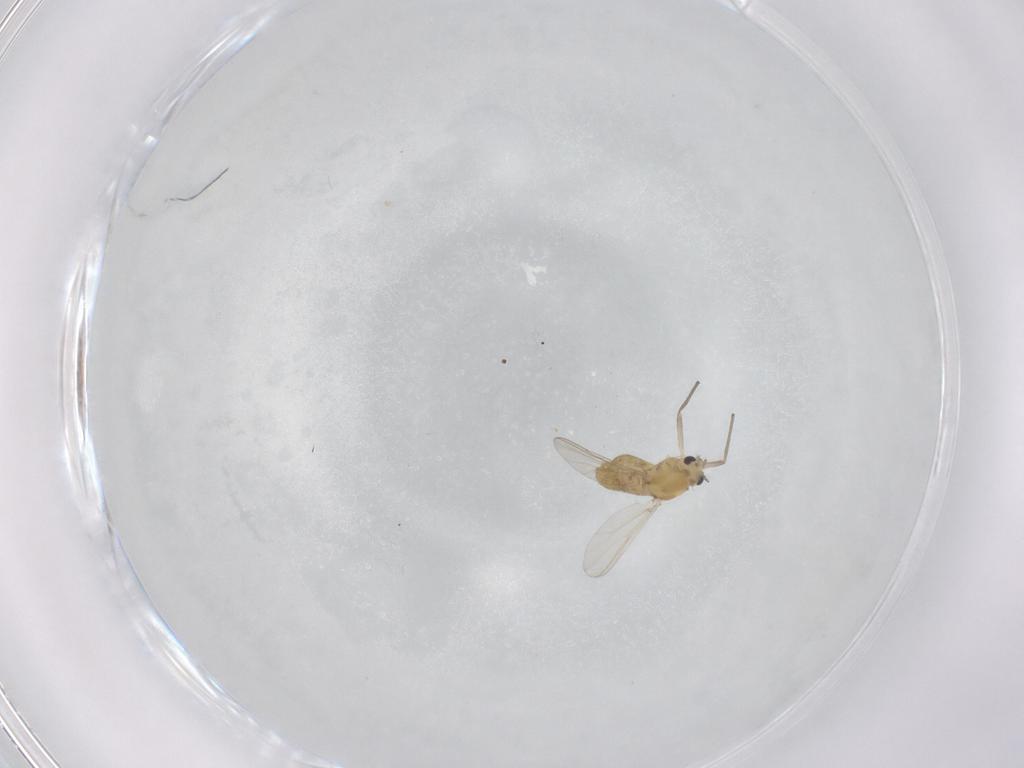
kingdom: Animalia
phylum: Arthropoda
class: Insecta
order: Diptera
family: Chironomidae
